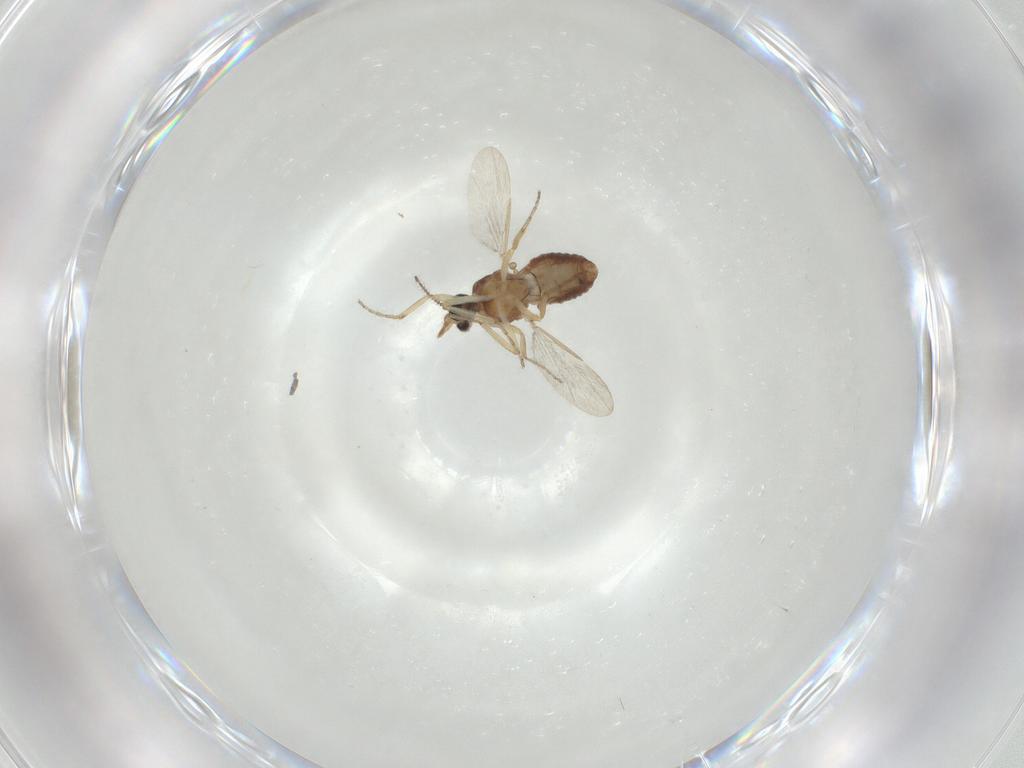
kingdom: Animalia
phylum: Arthropoda
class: Insecta
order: Diptera
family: Ceratopogonidae
